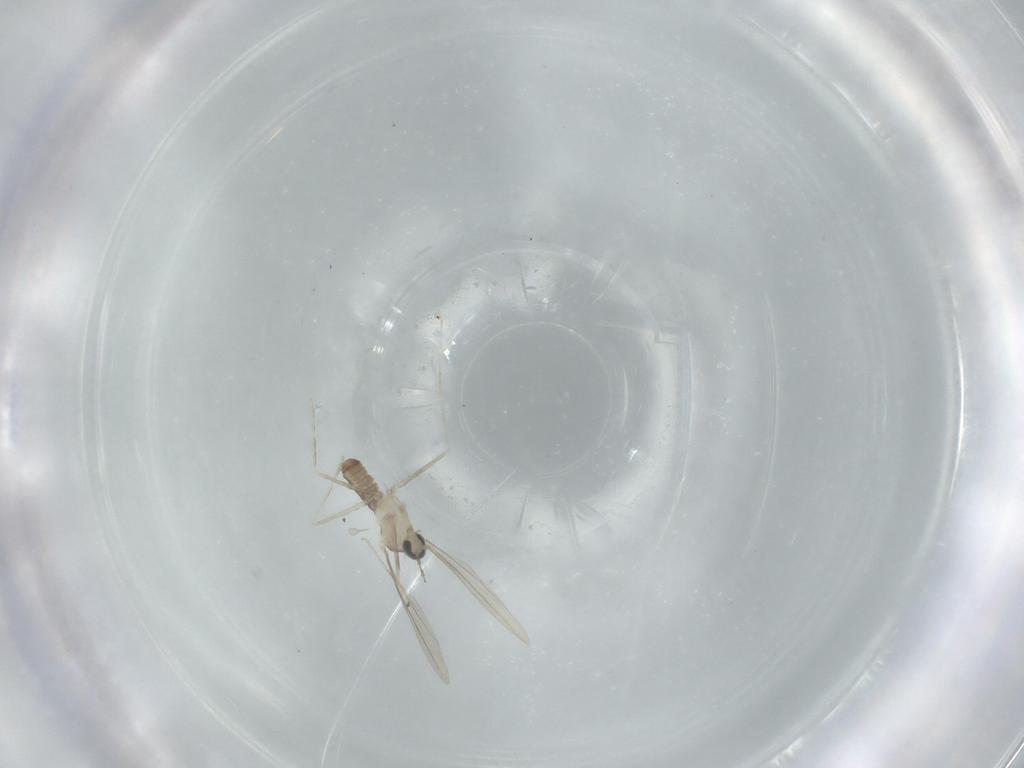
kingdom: Animalia
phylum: Arthropoda
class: Insecta
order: Diptera
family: Cecidomyiidae
